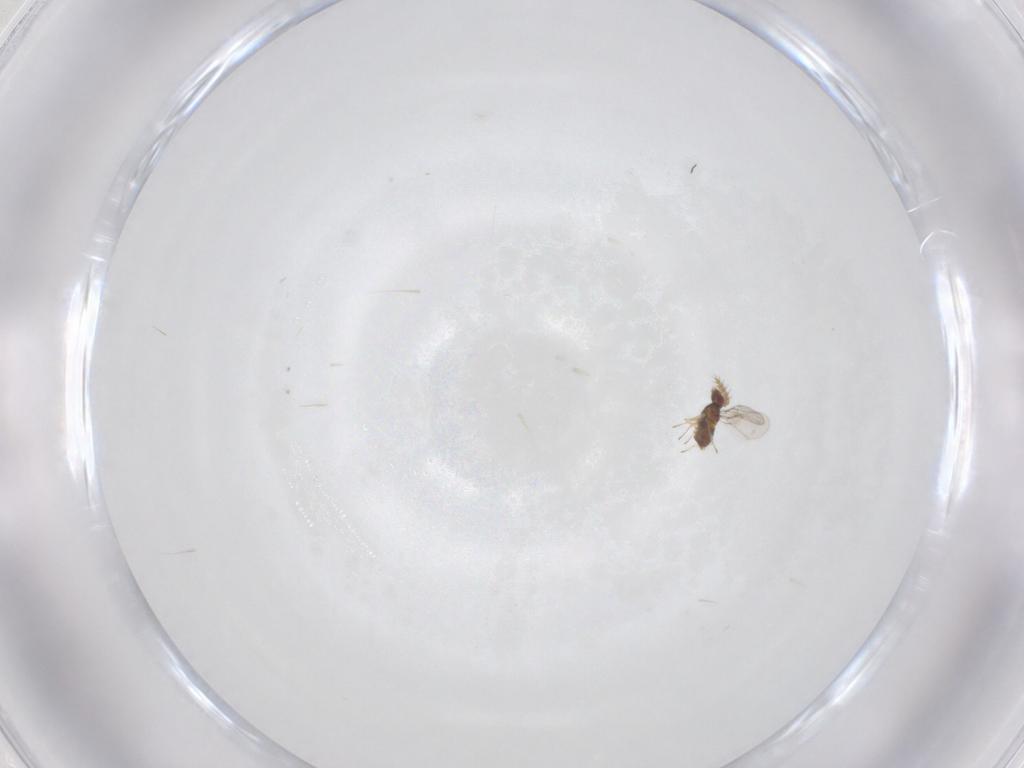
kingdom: Animalia
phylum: Arthropoda
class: Insecta
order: Hymenoptera
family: Trichogrammatidae
